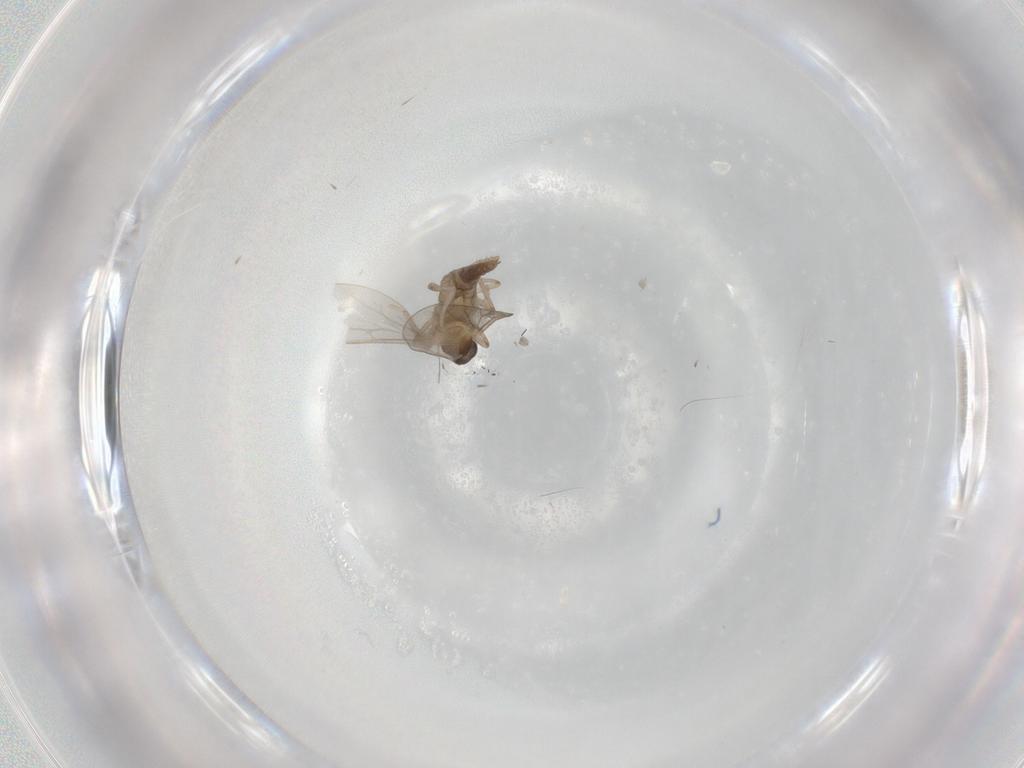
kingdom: Animalia
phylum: Arthropoda
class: Insecta
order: Diptera
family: Cecidomyiidae
